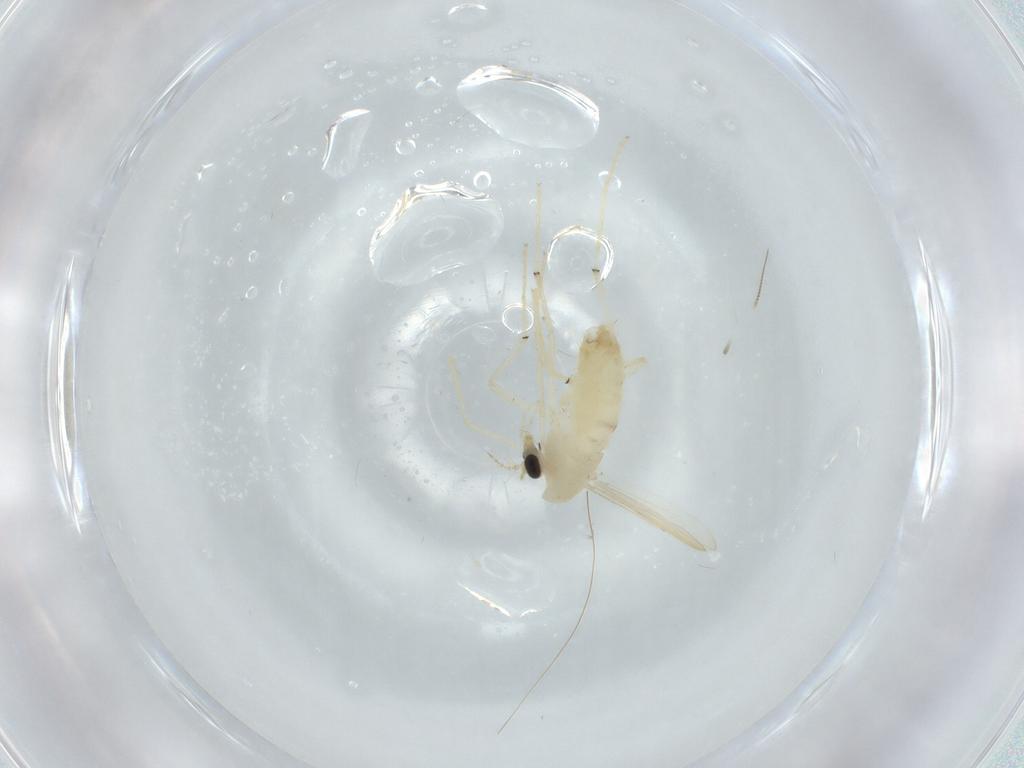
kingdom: Animalia
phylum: Arthropoda
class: Insecta
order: Diptera
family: Chironomidae
